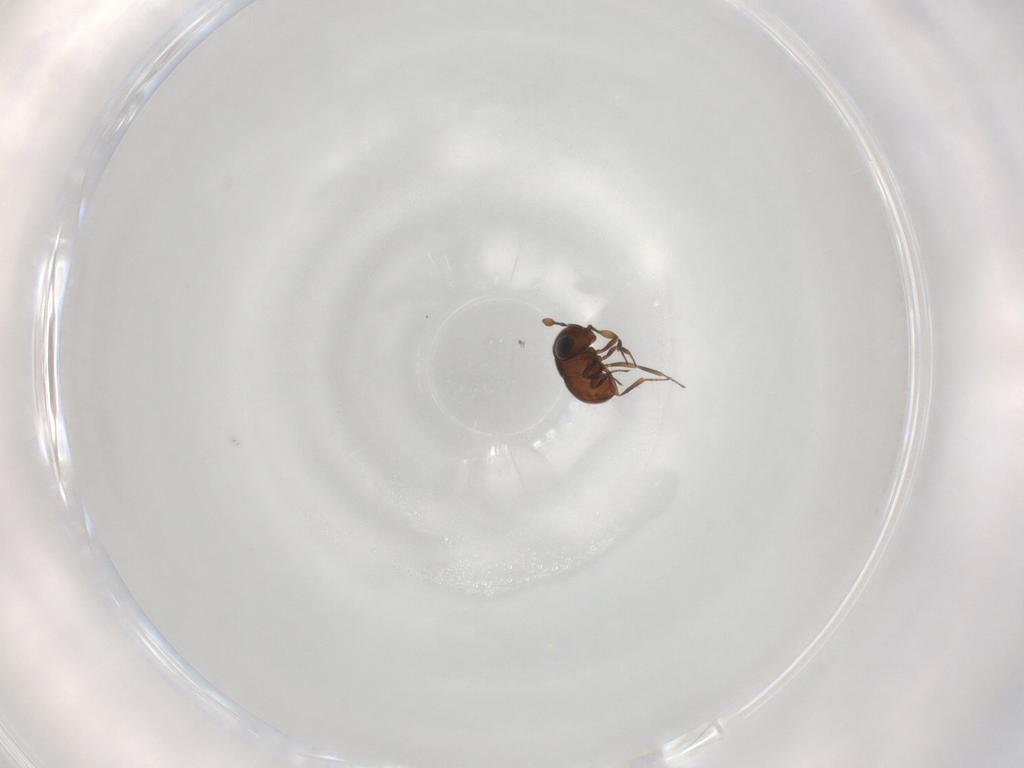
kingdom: Animalia
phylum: Arthropoda
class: Insecta
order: Hymenoptera
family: Scelionidae
